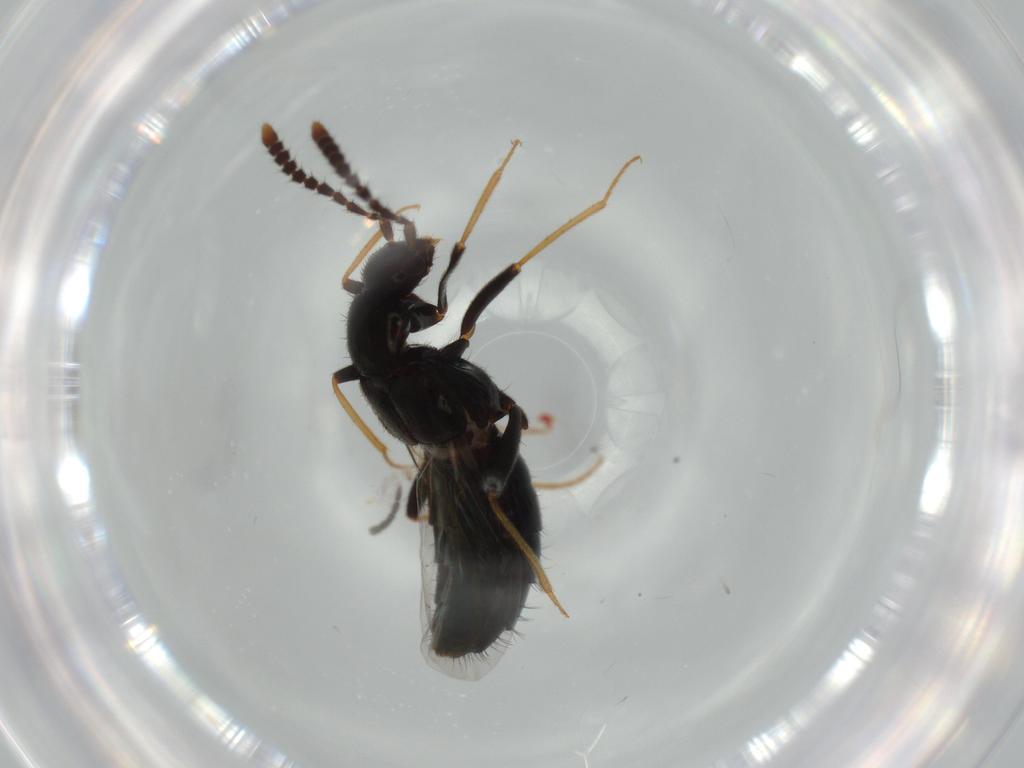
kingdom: Animalia
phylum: Arthropoda
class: Insecta
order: Coleoptera
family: Staphylinidae
